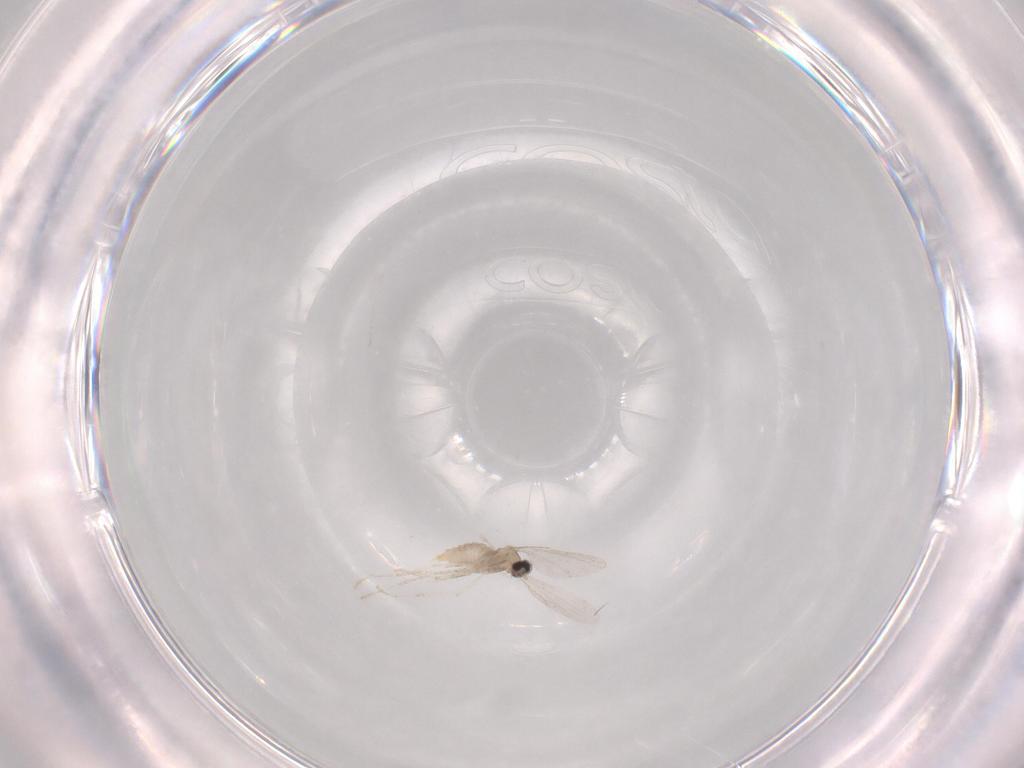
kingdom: Animalia
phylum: Arthropoda
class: Insecta
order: Diptera
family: Cecidomyiidae
